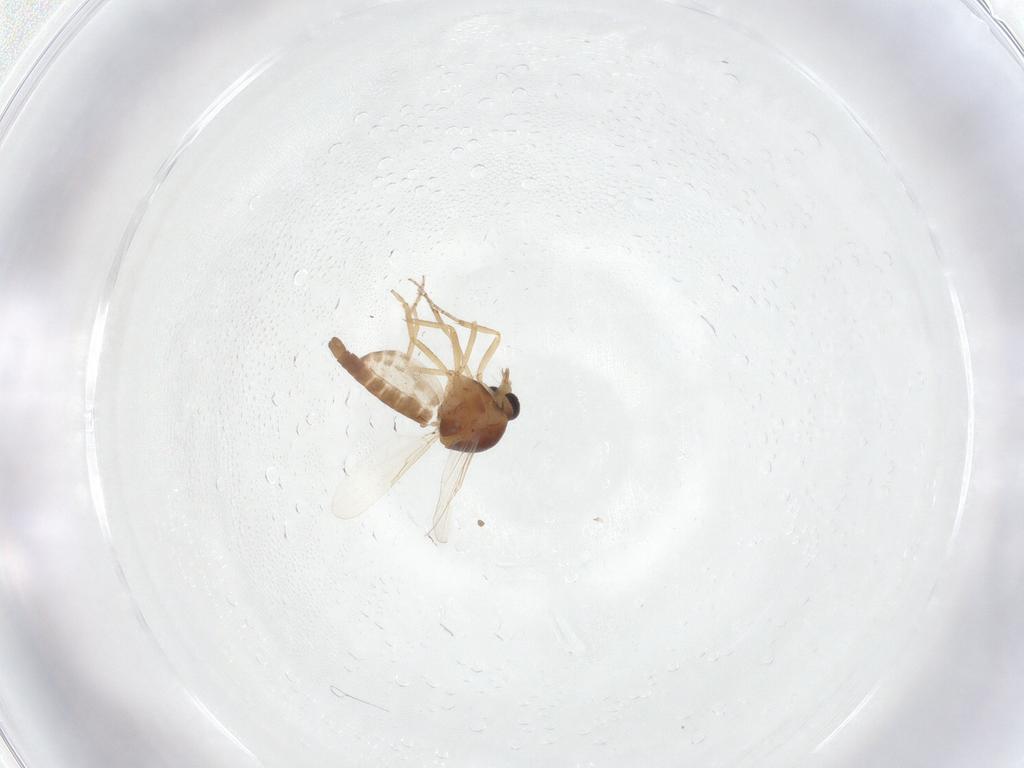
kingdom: Animalia
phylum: Arthropoda
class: Insecta
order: Diptera
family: Ceratopogonidae
